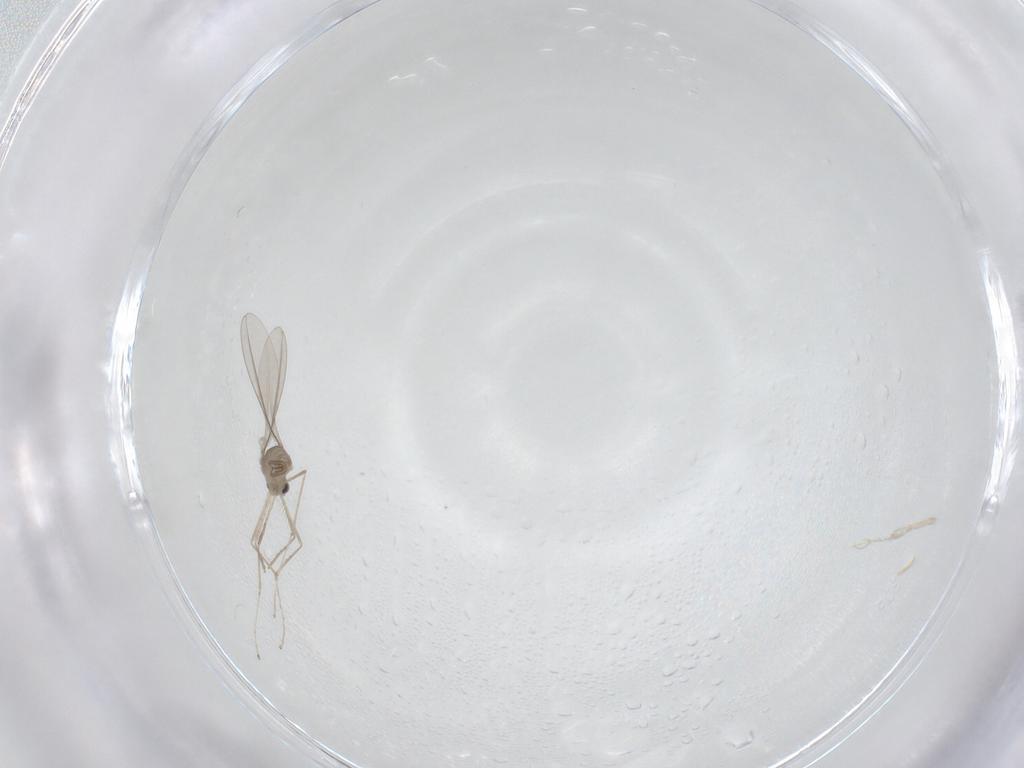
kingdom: Animalia
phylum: Arthropoda
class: Insecta
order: Diptera
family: Cecidomyiidae
